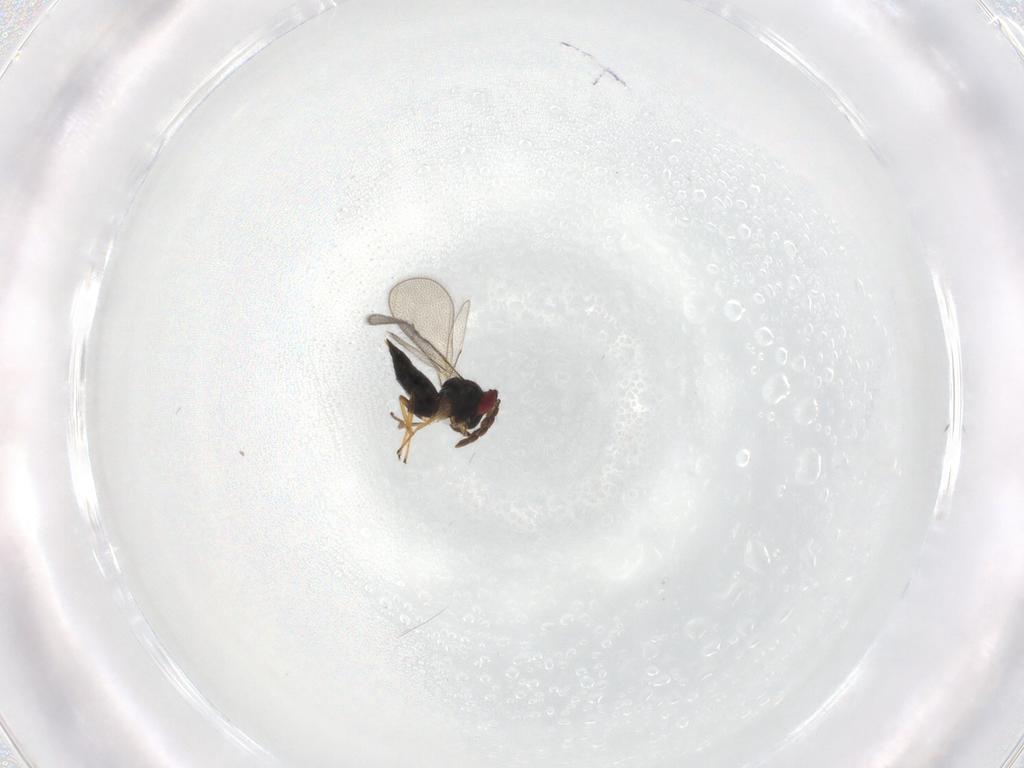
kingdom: Animalia
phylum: Arthropoda
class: Insecta
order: Hymenoptera
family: Eulophidae
